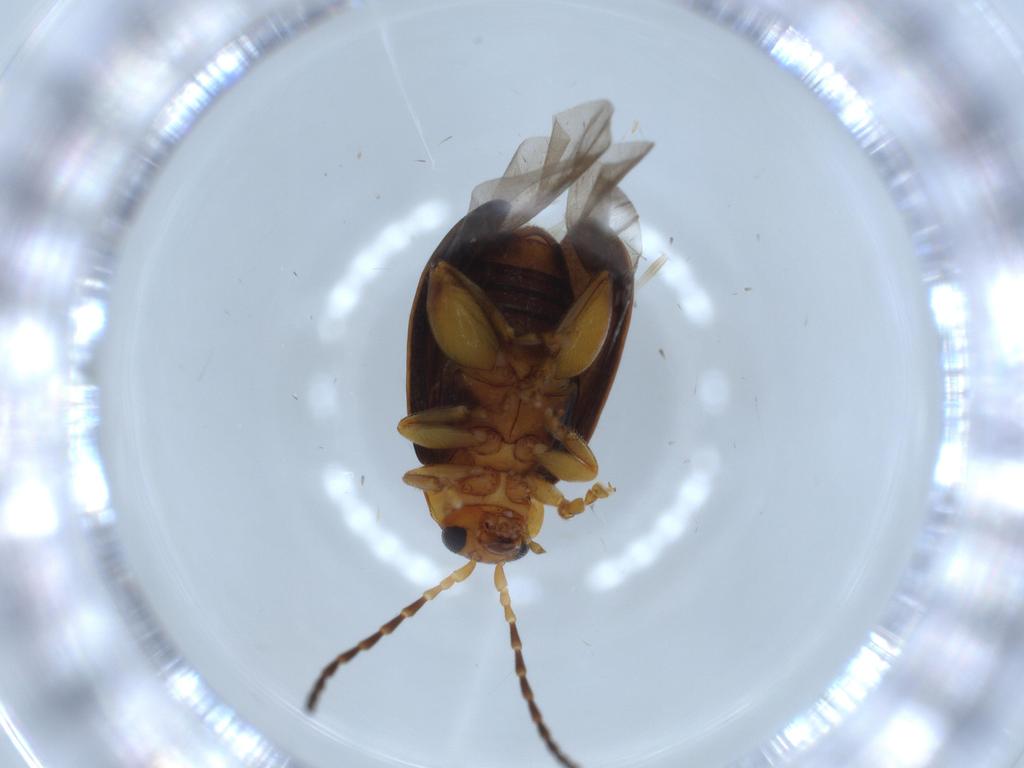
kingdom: Animalia
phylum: Arthropoda
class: Insecta
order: Coleoptera
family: Chrysomelidae
